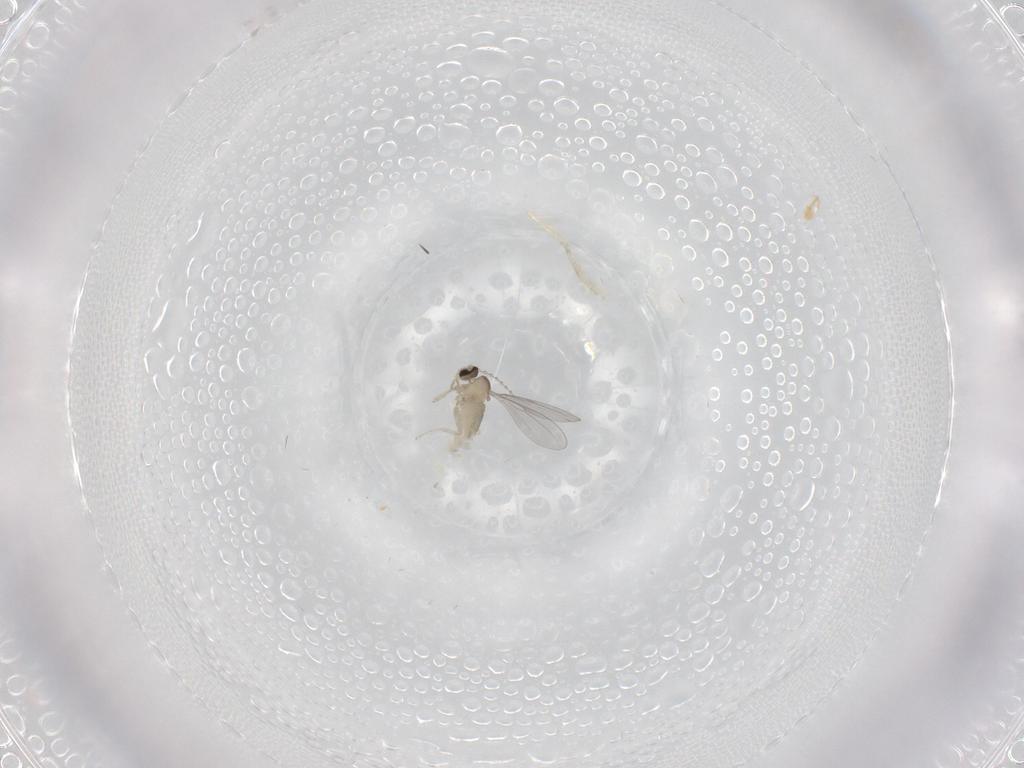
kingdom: Animalia
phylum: Arthropoda
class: Insecta
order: Diptera
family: Cecidomyiidae
